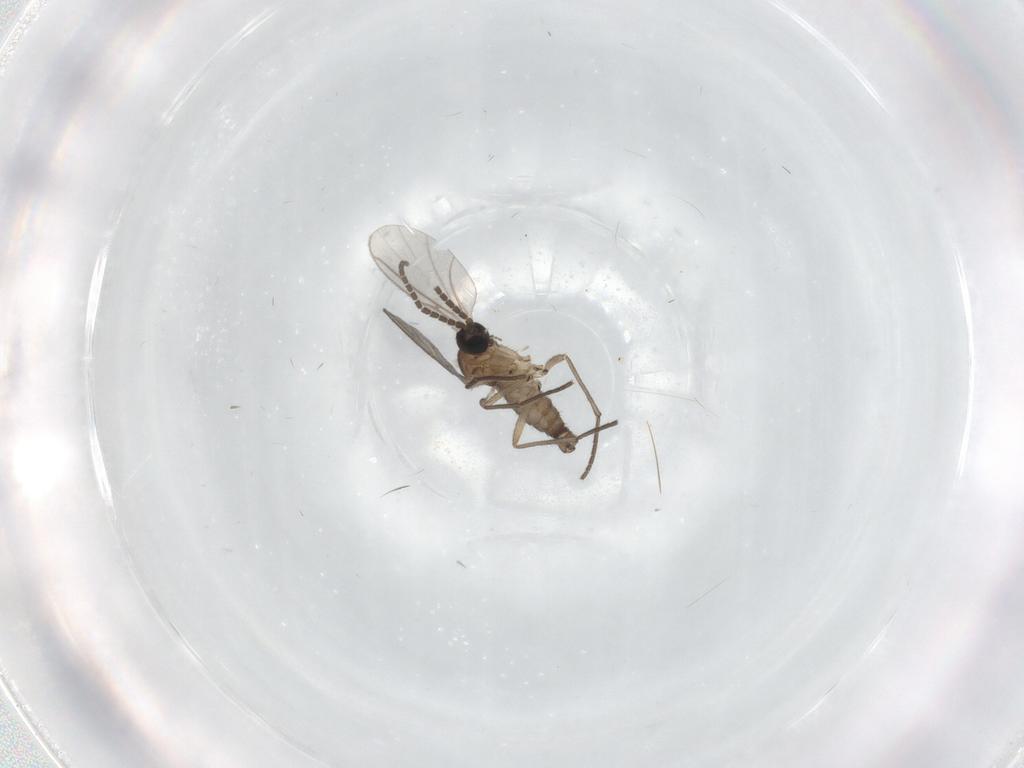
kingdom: Animalia
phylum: Arthropoda
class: Insecta
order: Diptera
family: Sciaridae
